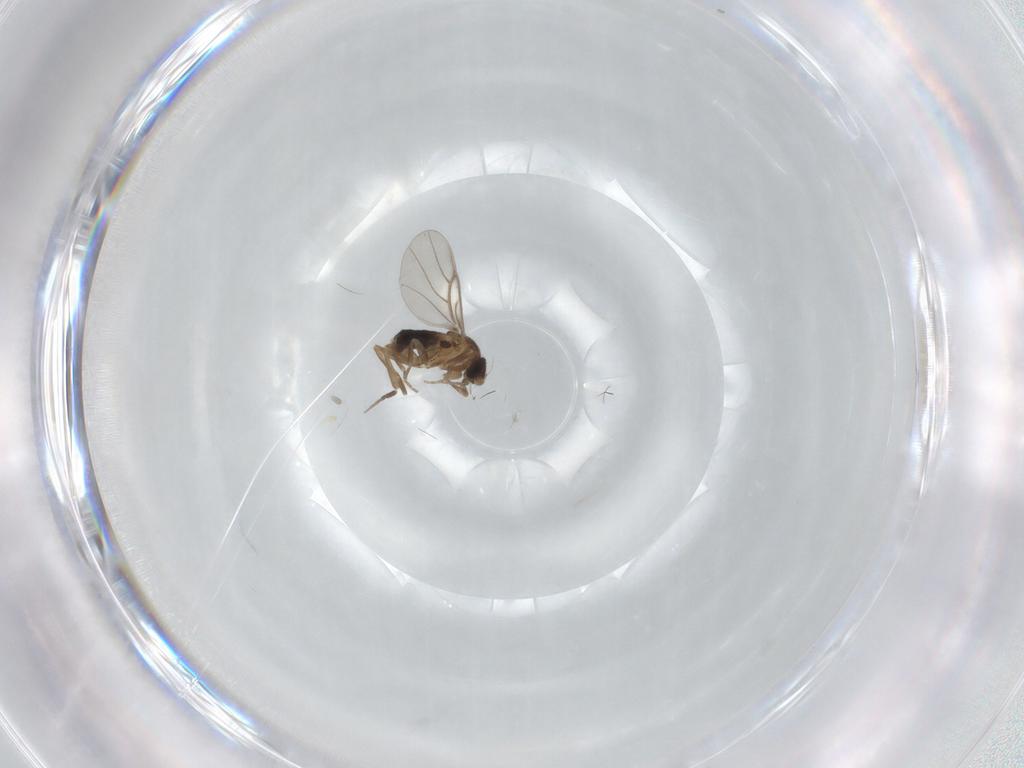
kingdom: Animalia
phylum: Arthropoda
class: Insecta
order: Diptera
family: Phoridae
